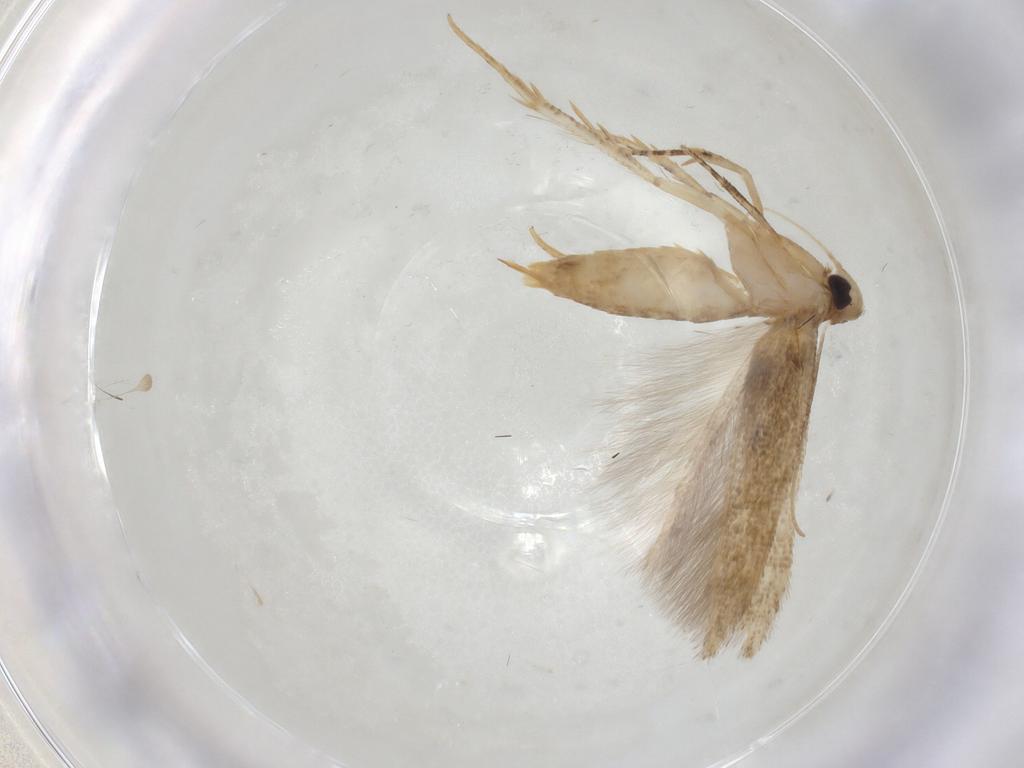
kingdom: Animalia
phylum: Arthropoda
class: Insecta
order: Lepidoptera
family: Cosmopterigidae
